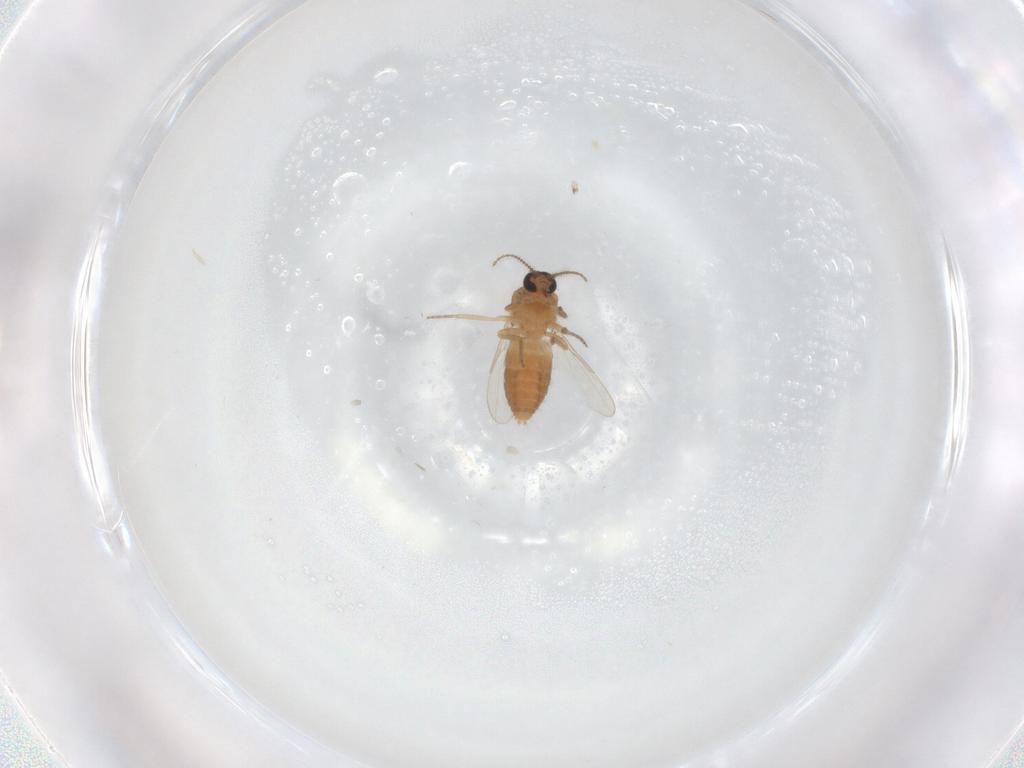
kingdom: Animalia
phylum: Arthropoda
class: Insecta
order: Diptera
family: Ceratopogonidae
